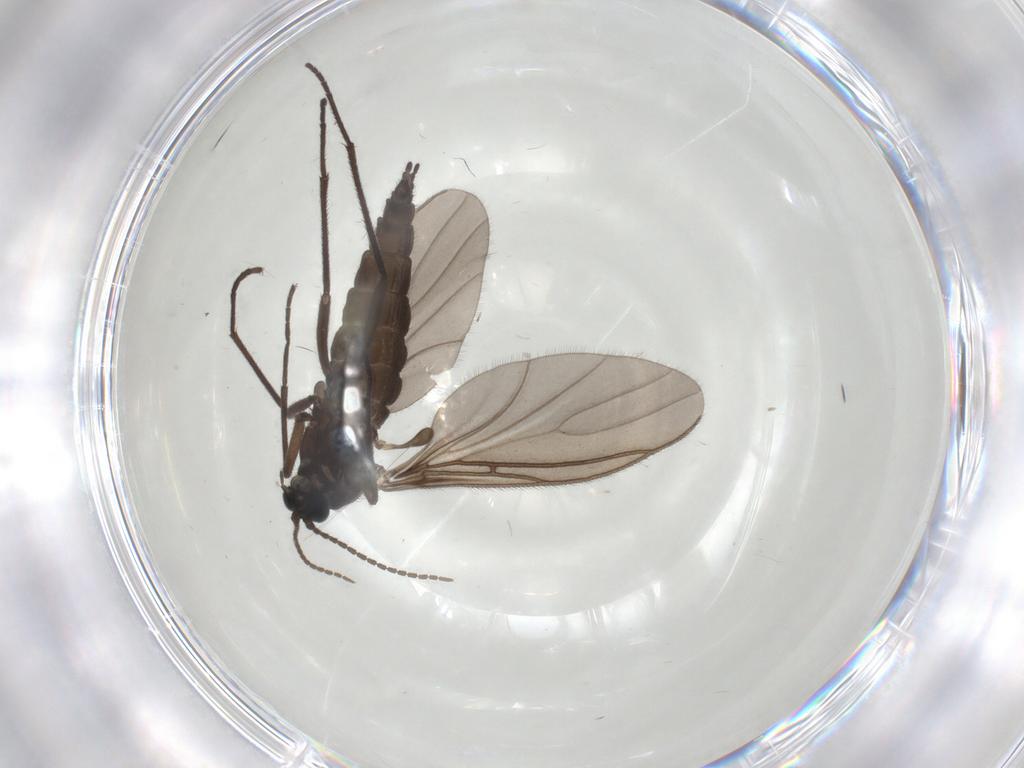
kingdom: Animalia
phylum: Arthropoda
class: Insecta
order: Diptera
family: Sciaridae
